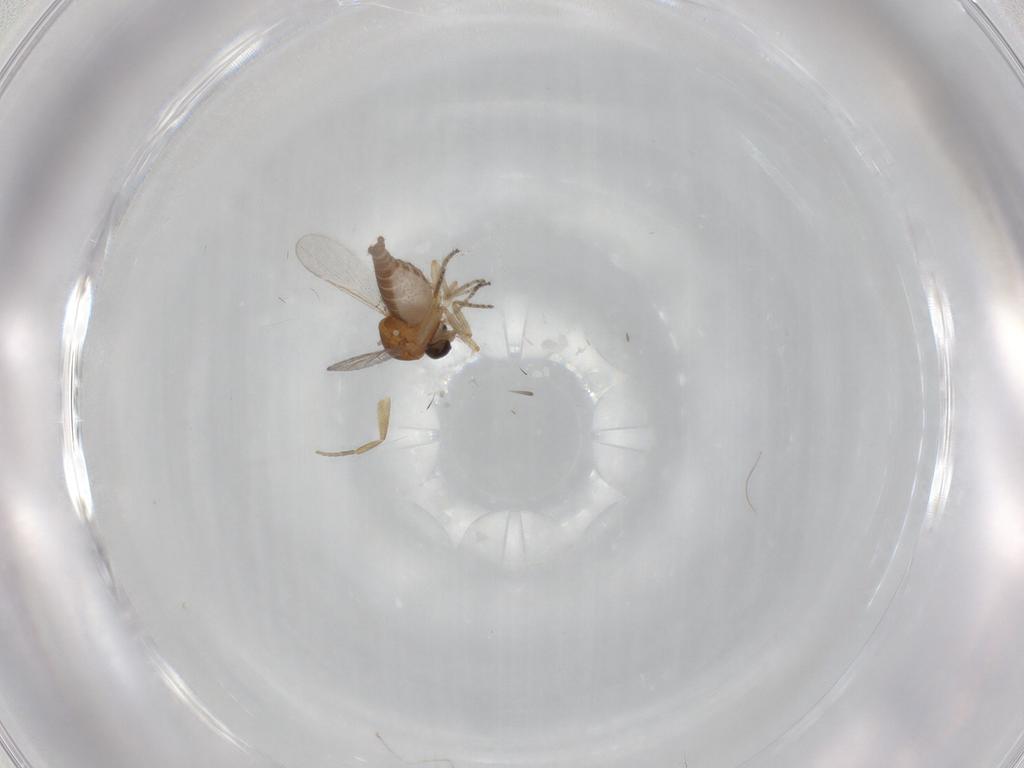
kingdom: Animalia
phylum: Arthropoda
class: Insecta
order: Diptera
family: Ceratopogonidae
